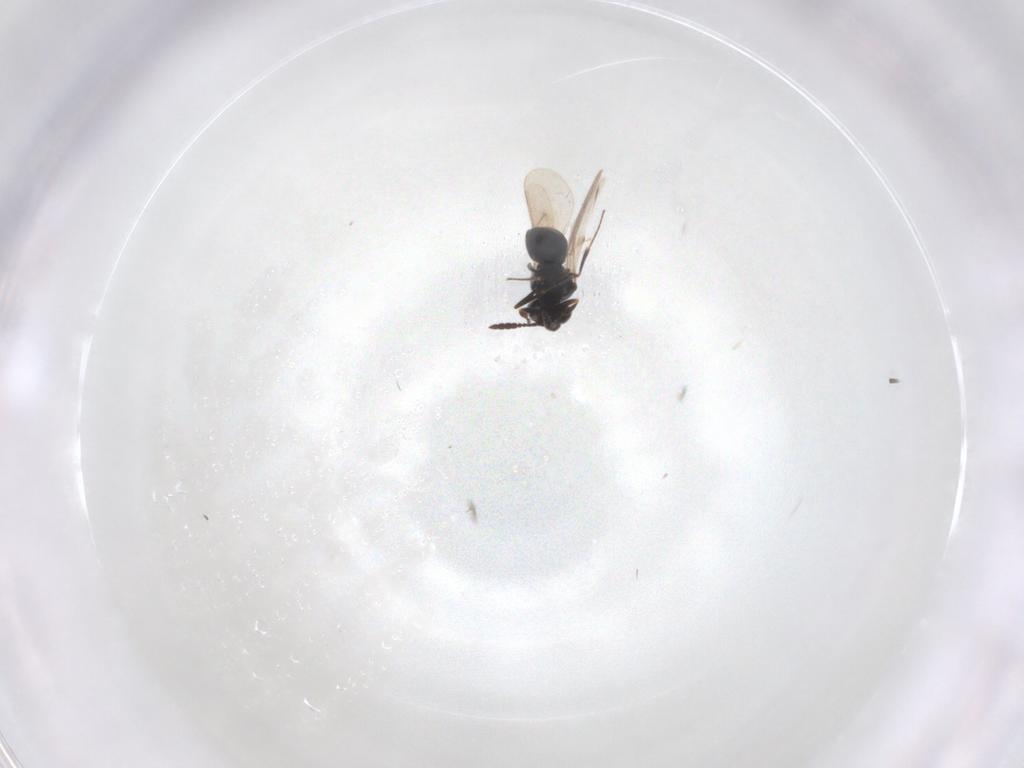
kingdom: Animalia
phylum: Arthropoda
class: Insecta
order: Hymenoptera
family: Scelionidae
